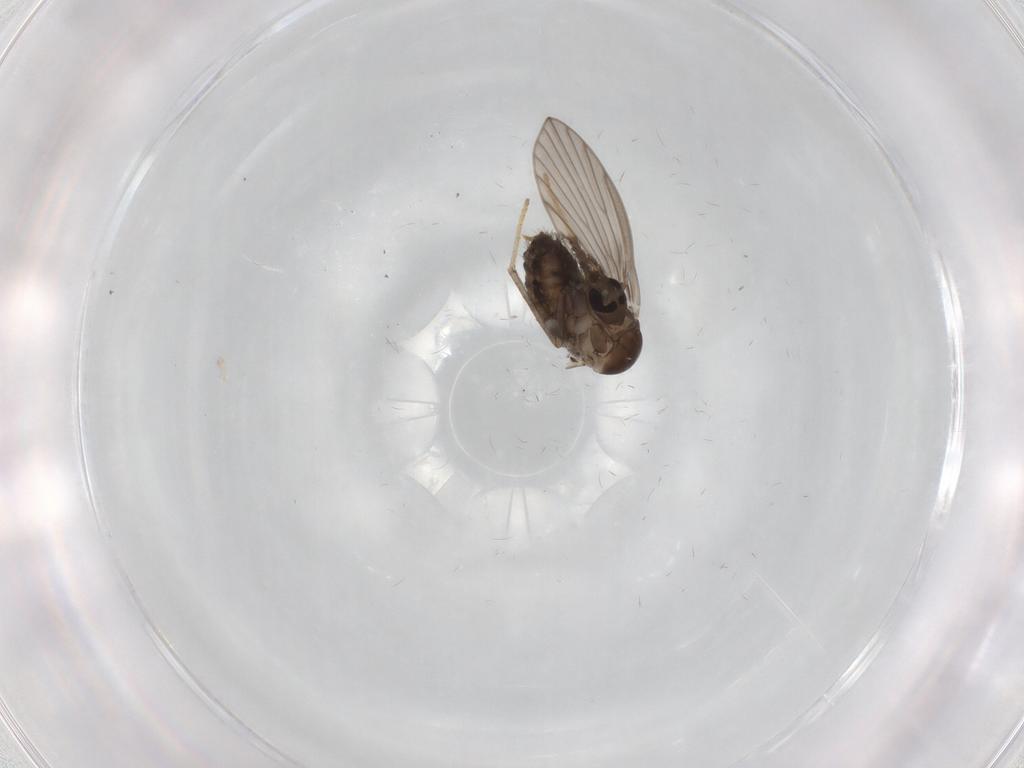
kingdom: Animalia
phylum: Arthropoda
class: Insecta
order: Diptera
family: Psychodidae
